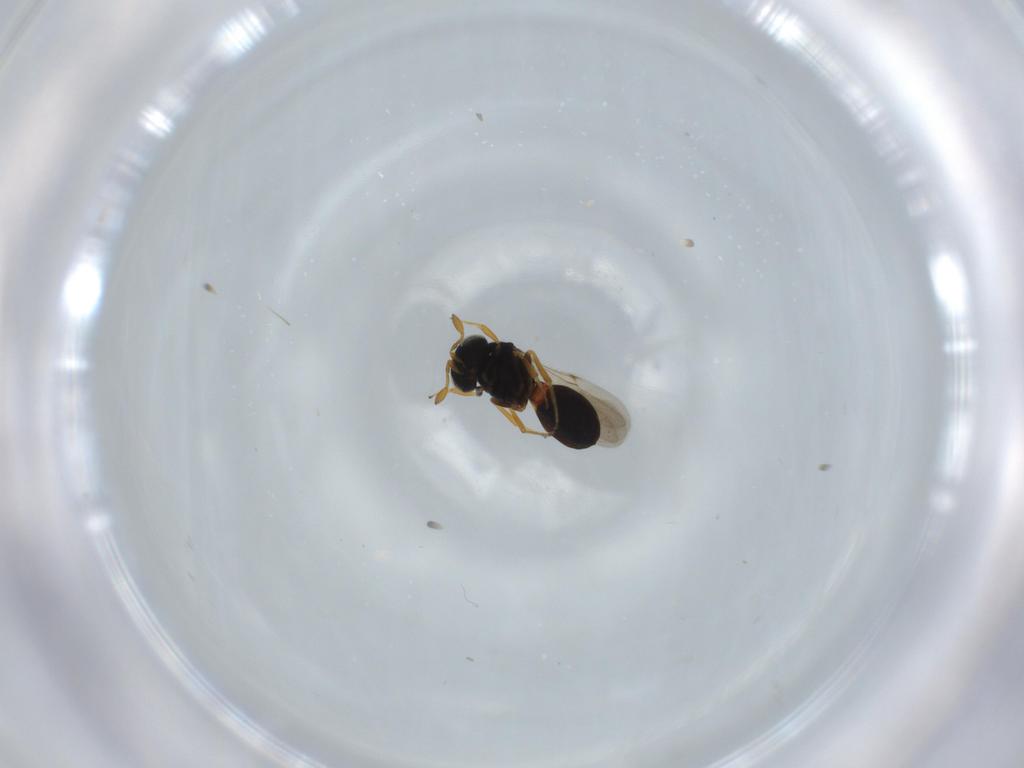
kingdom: Animalia
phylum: Arthropoda
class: Insecta
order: Hymenoptera
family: Scelionidae
